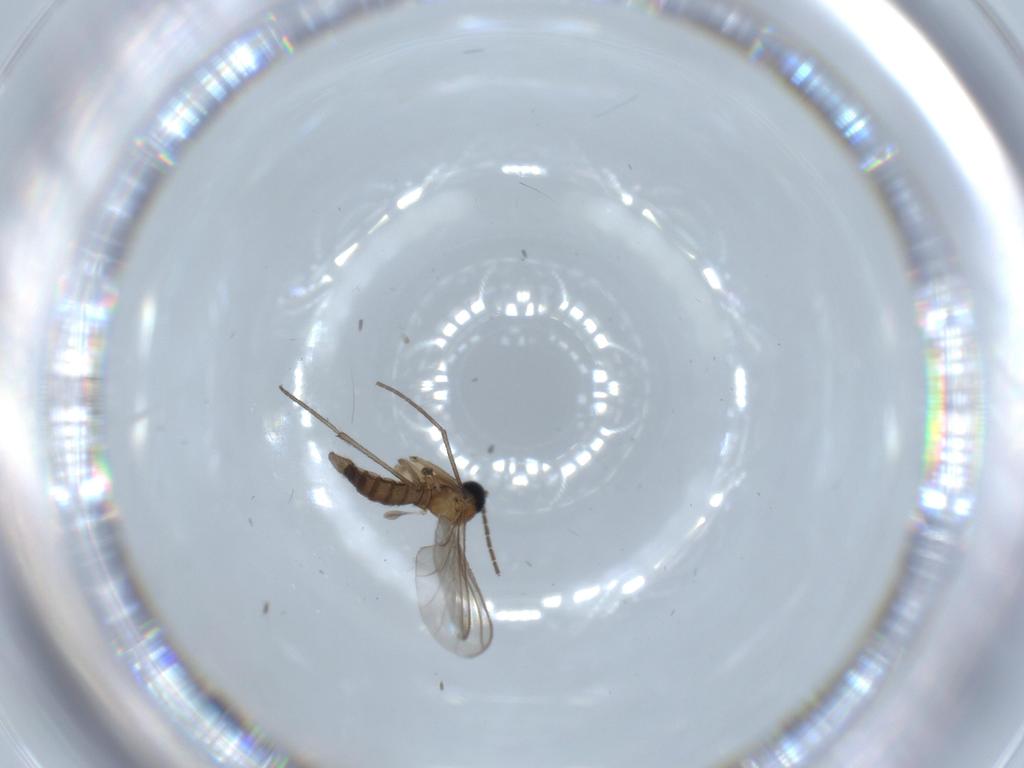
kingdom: Animalia
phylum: Arthropoda
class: Insecta
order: Diptera
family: Sciaridae
